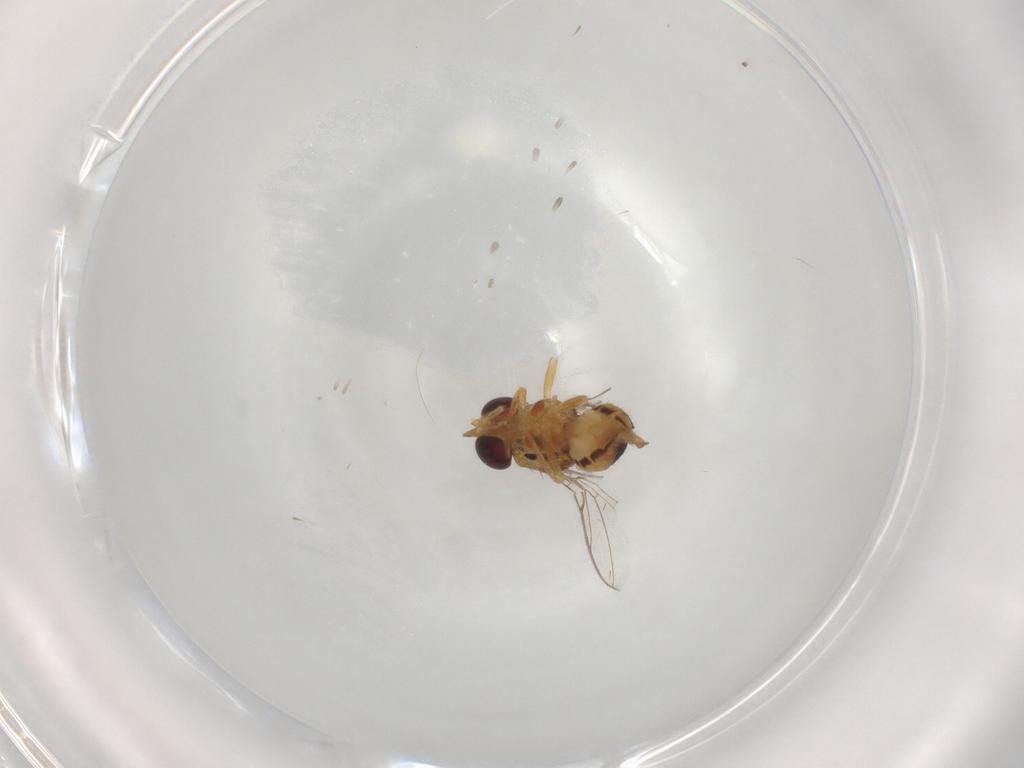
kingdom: Animalia
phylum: Arthropoda
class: Insecta
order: Diptera
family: Chloropidae
